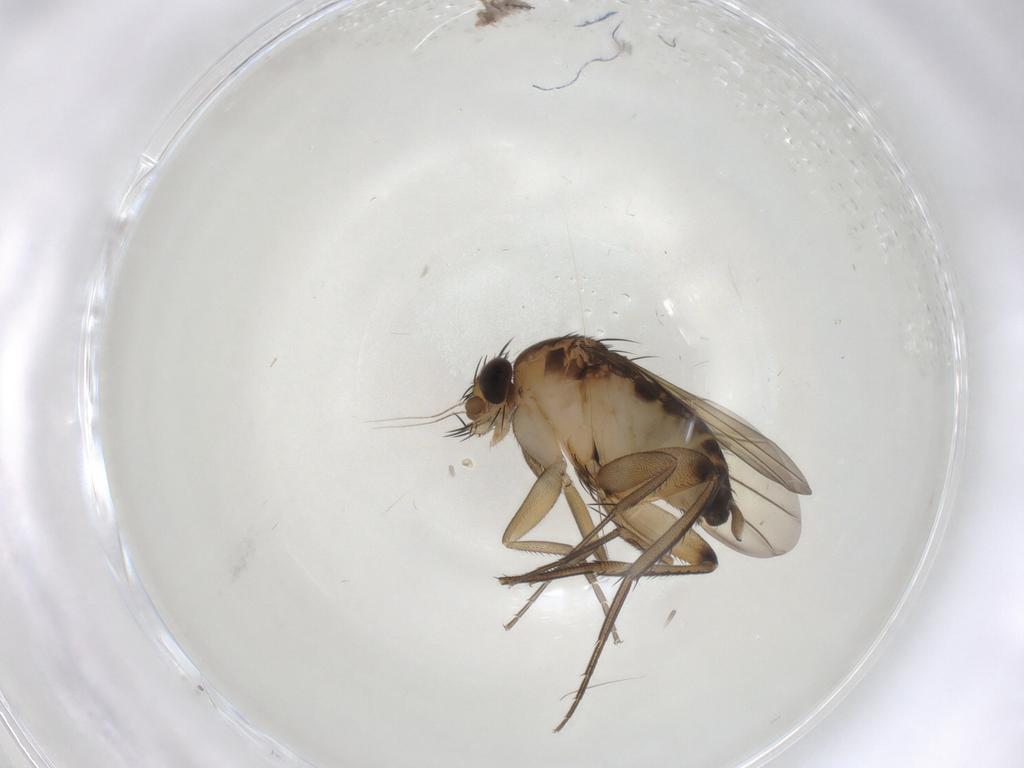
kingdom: Animalia
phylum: Arthropoda
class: Insecta
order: Diptera
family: Phoridae
